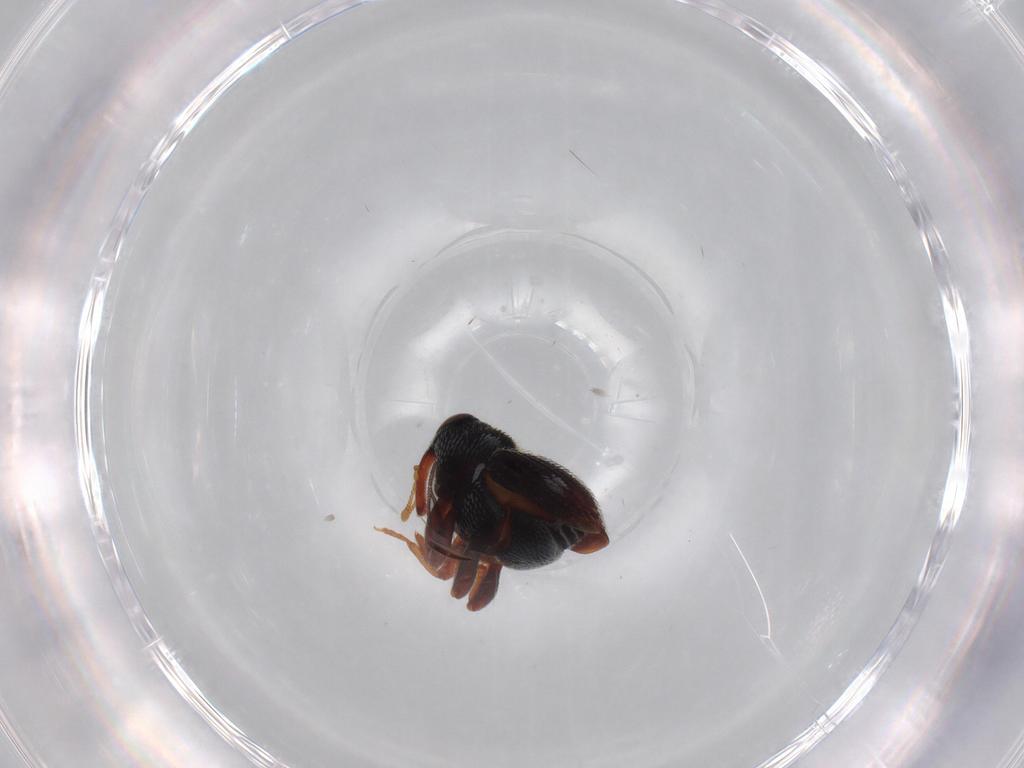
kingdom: Animalia
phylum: Arthropoda
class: Insecta
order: Coleoptera
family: Curculionidae
